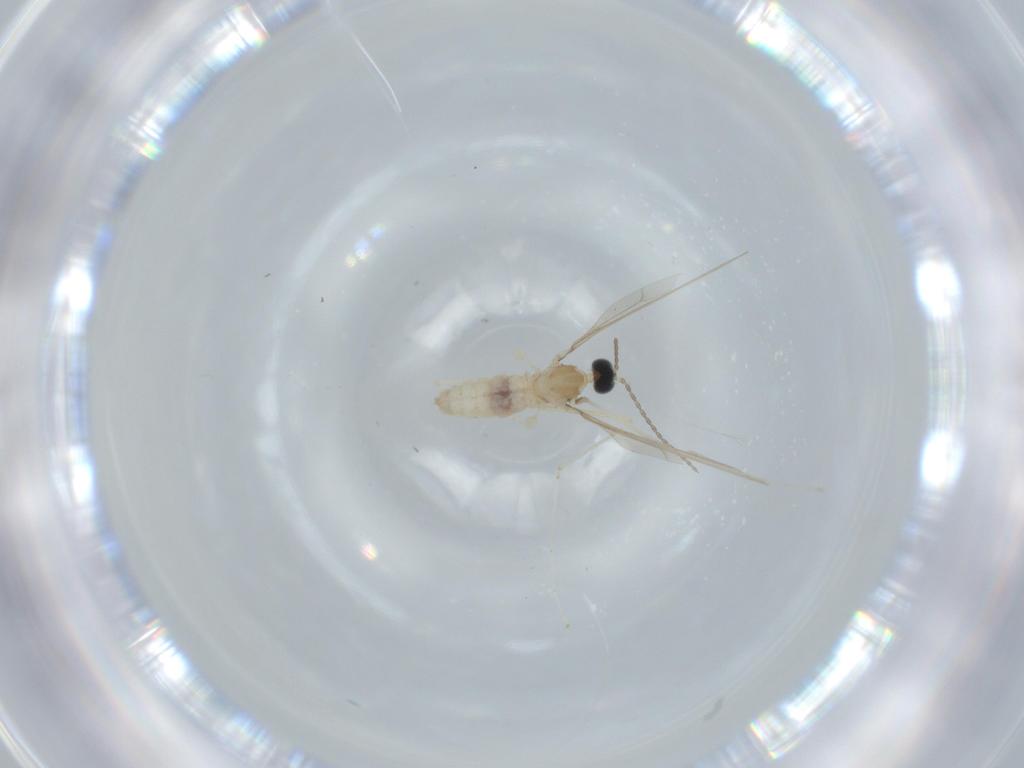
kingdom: Animalia
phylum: Arthropoda
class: Insecta
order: Diptera
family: Cecidomyiidae
